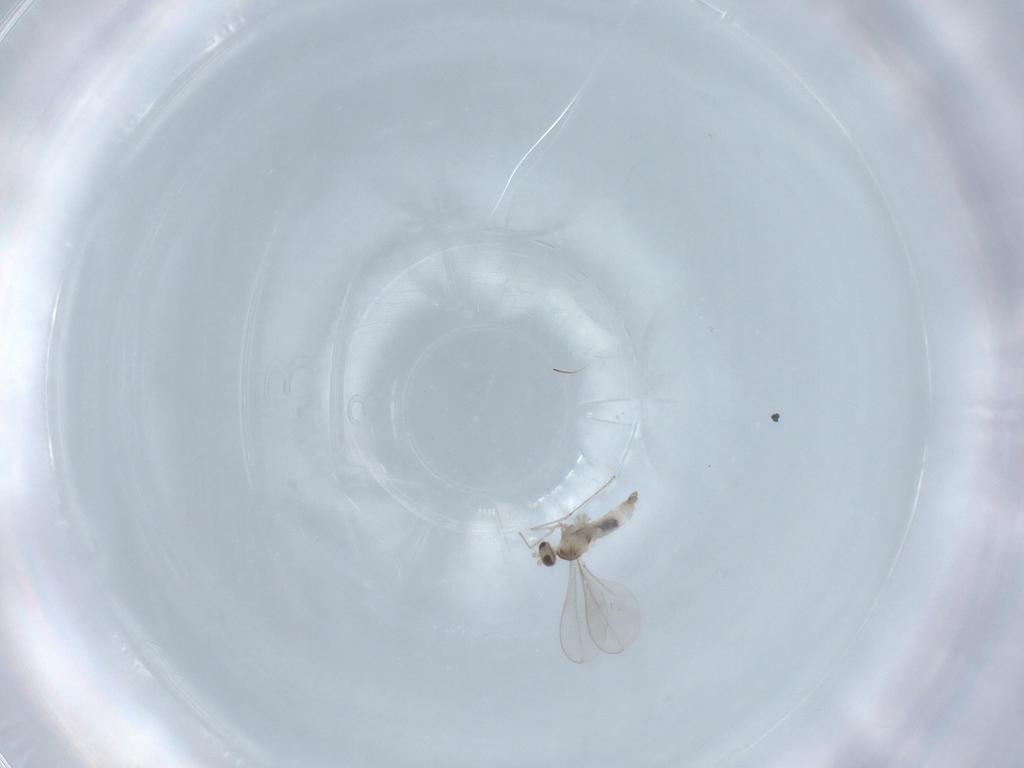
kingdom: Animalia
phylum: Arthropoda
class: Insecta
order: Diptera
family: Cecidomyiidae
